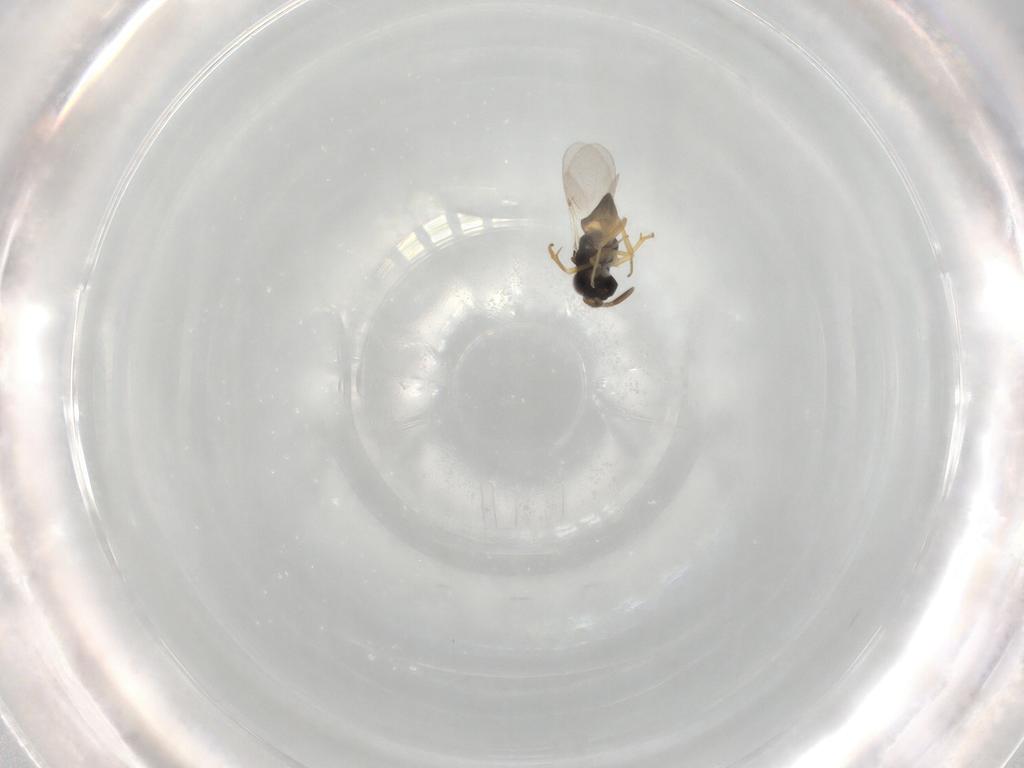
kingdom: Animalia
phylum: Arthropoda
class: Insecta
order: Hymenoptera
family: Encyrtidae
